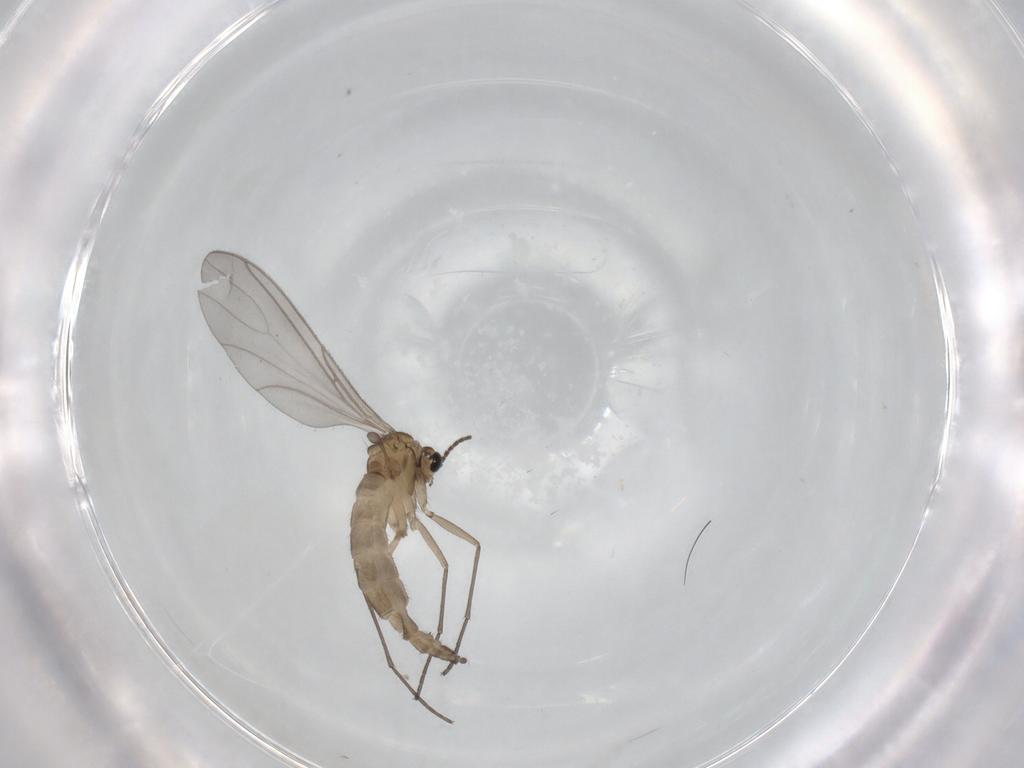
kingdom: Animalia
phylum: Arthropoda
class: Insecta
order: Diptera
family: Sciaridae
